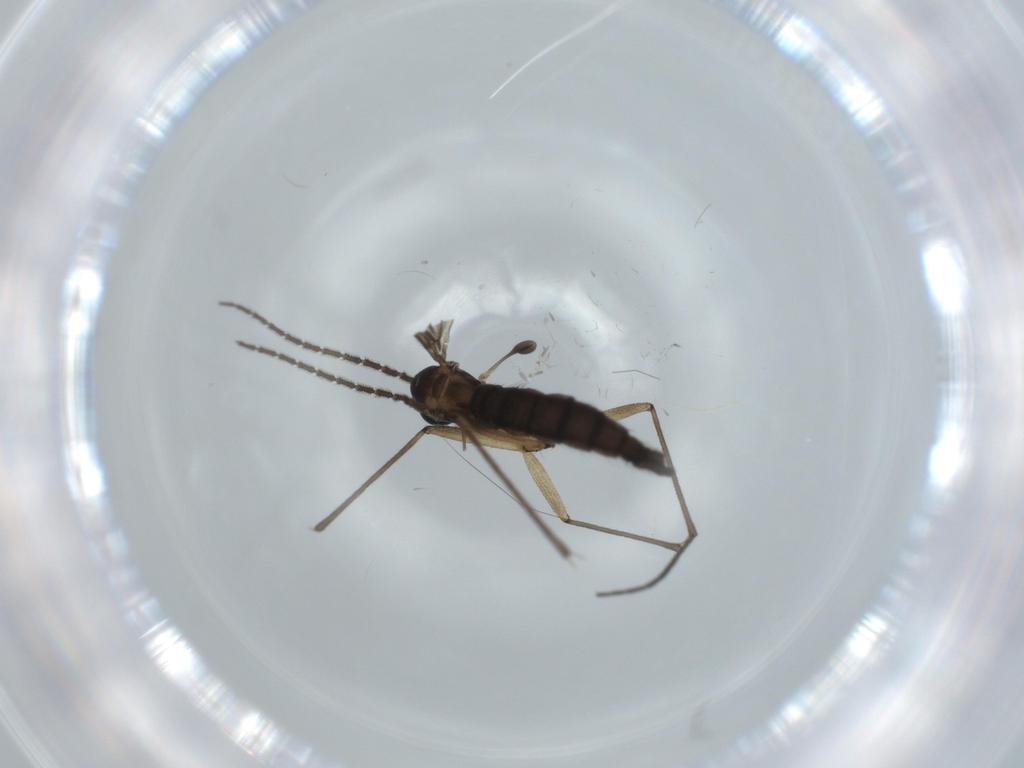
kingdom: Animalia
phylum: Arthropoda
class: Insecta
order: Diptera
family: Sciaridae
